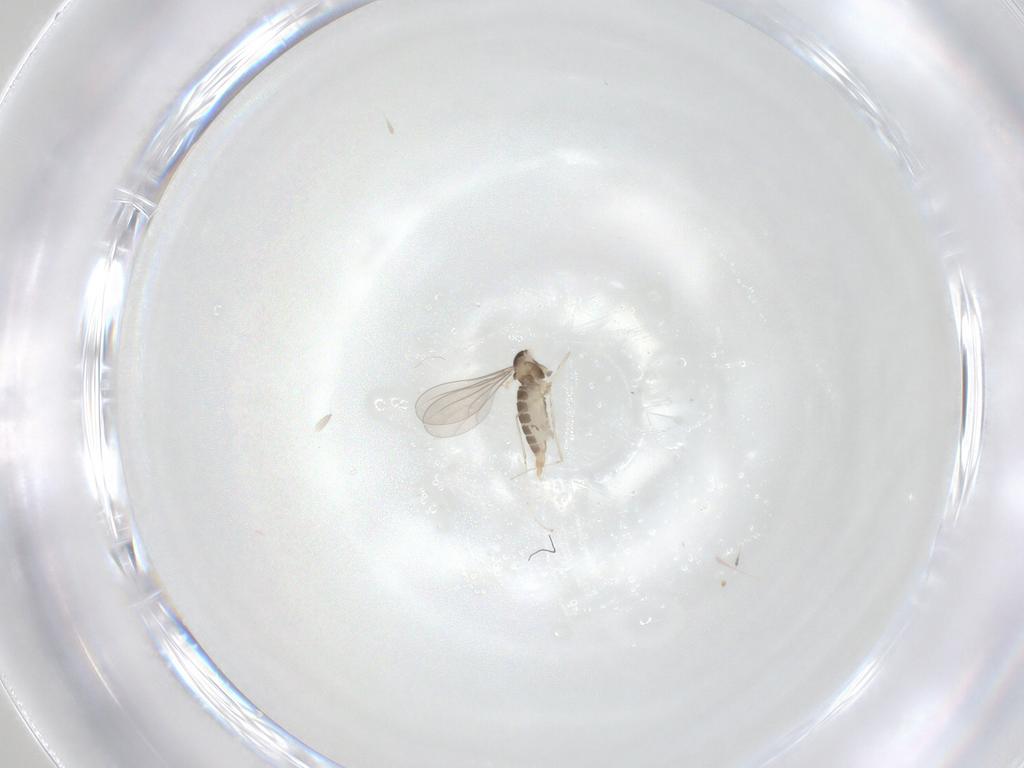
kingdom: Animalia
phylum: Arthropoda
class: Insecta
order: Diptera
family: Cecidomyiidae
